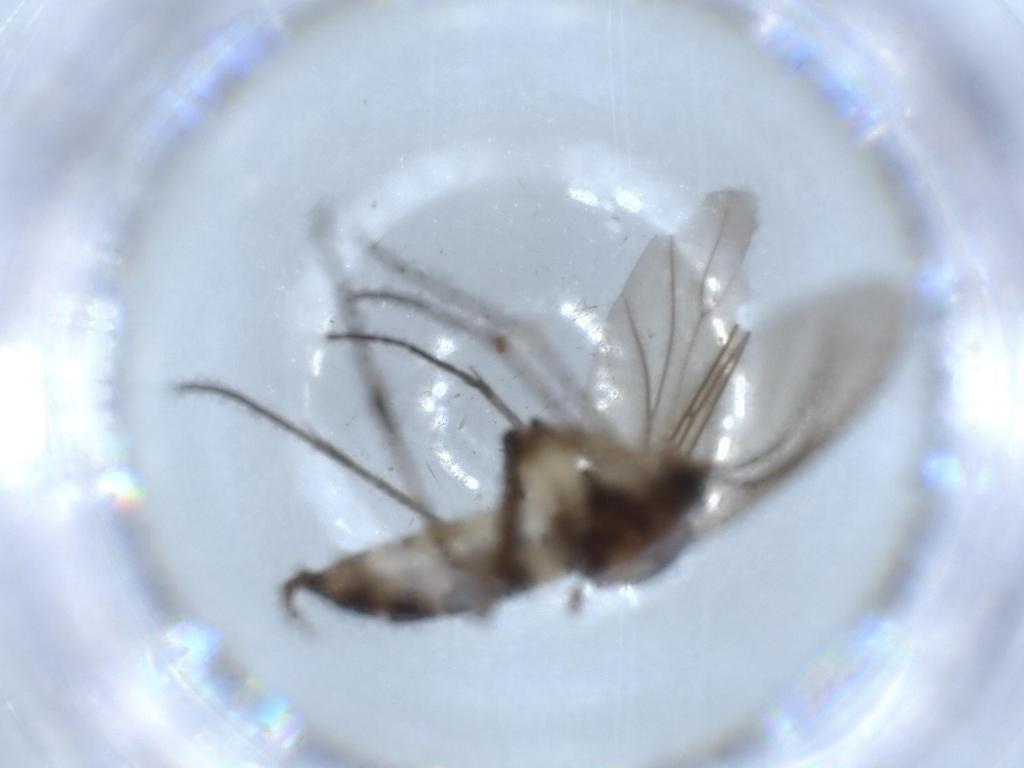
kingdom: Animalia
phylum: Arthropoda
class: Insecta
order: Diptera
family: Sciaridae
